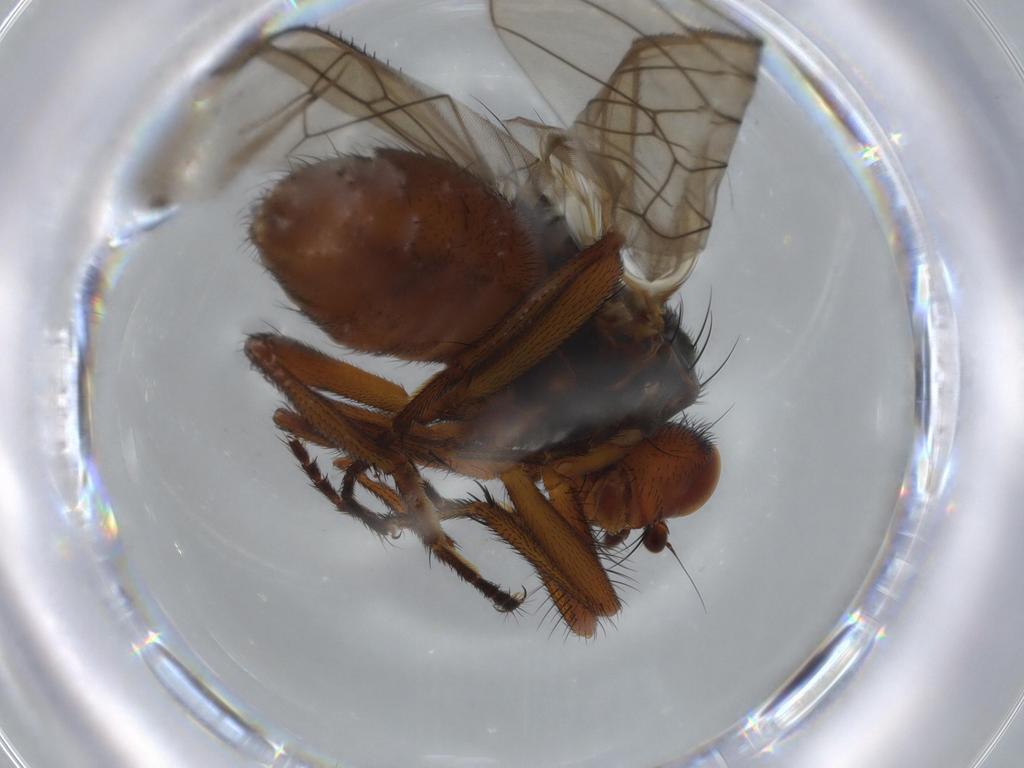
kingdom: Animalia
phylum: Arthropoda
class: Insecta
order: Diptera
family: Heleomyzidae
